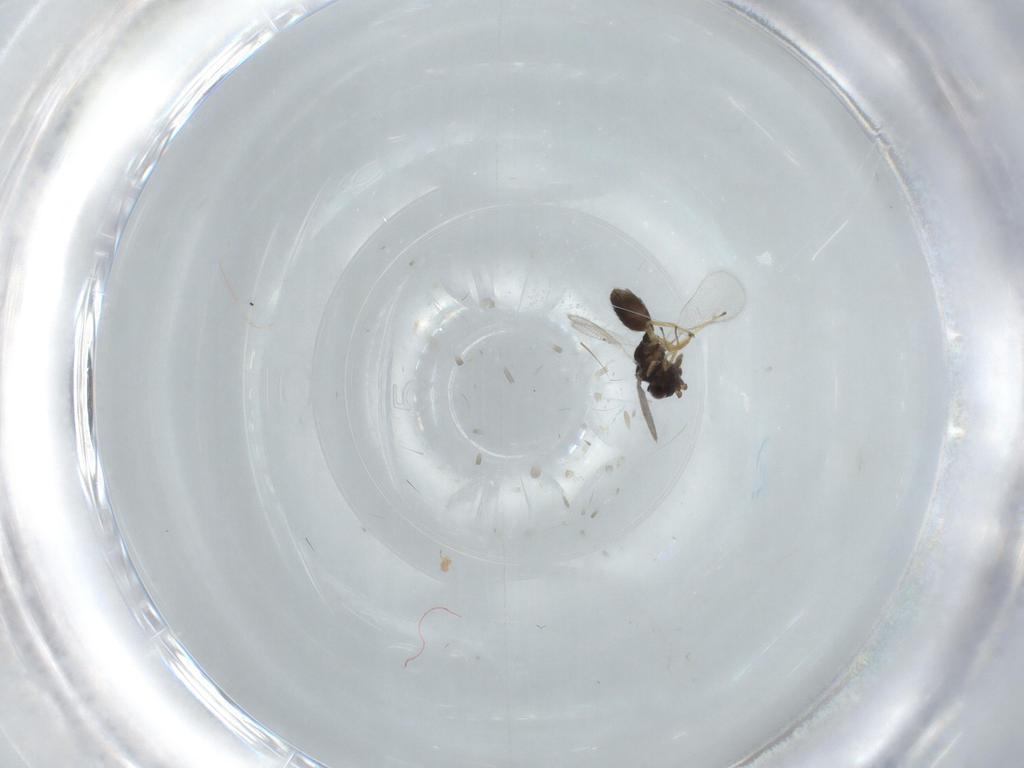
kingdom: Animalia
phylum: Arthropoda
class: Insecta
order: Hymenoptera
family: Eulophidae
